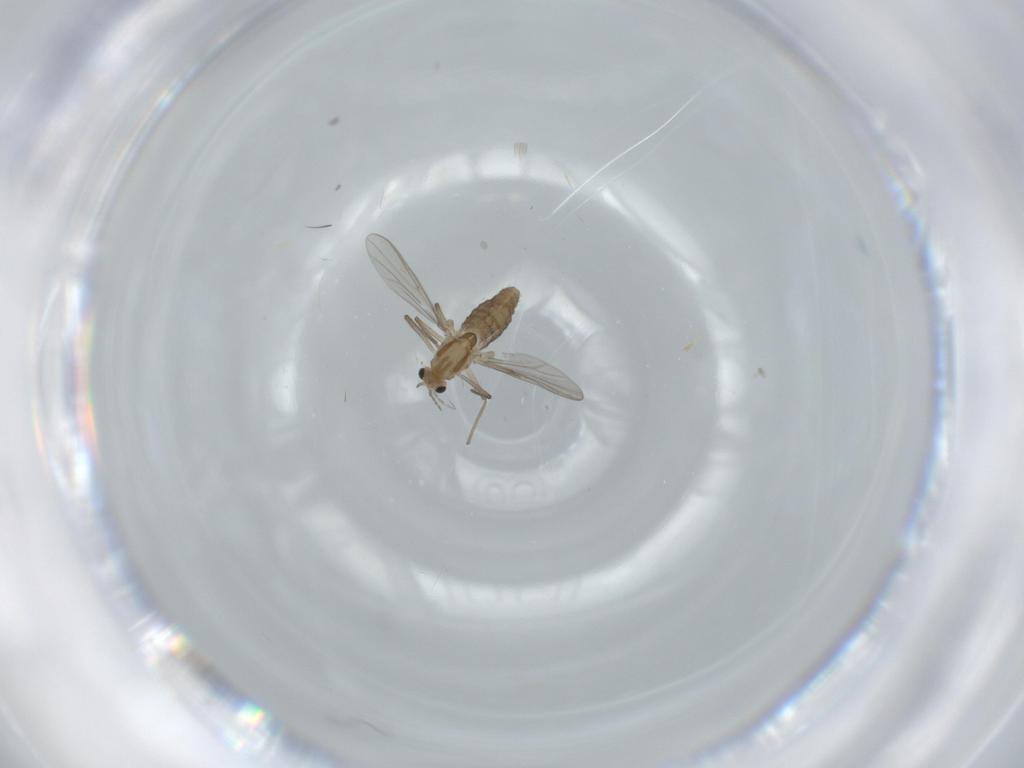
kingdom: Animalia
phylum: Arthropoda
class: Insecta
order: Diptera
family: Chironomidae
